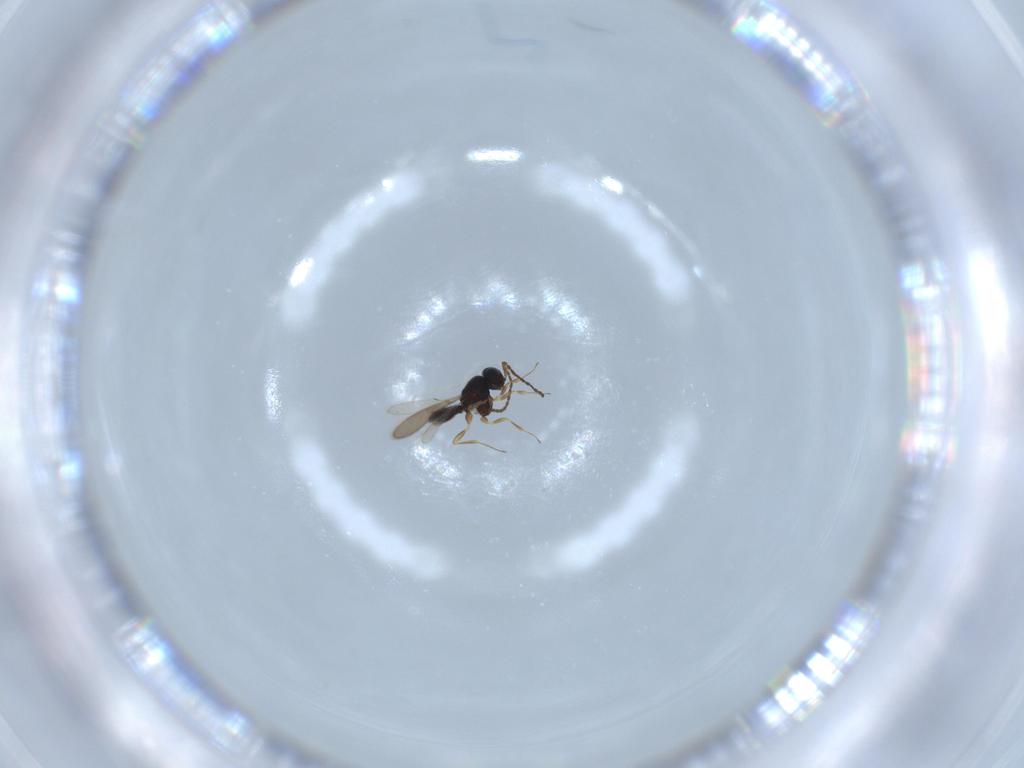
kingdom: Animalia
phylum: Arthropoda
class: Insecta
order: Hymenoptera
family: Scelionidae
